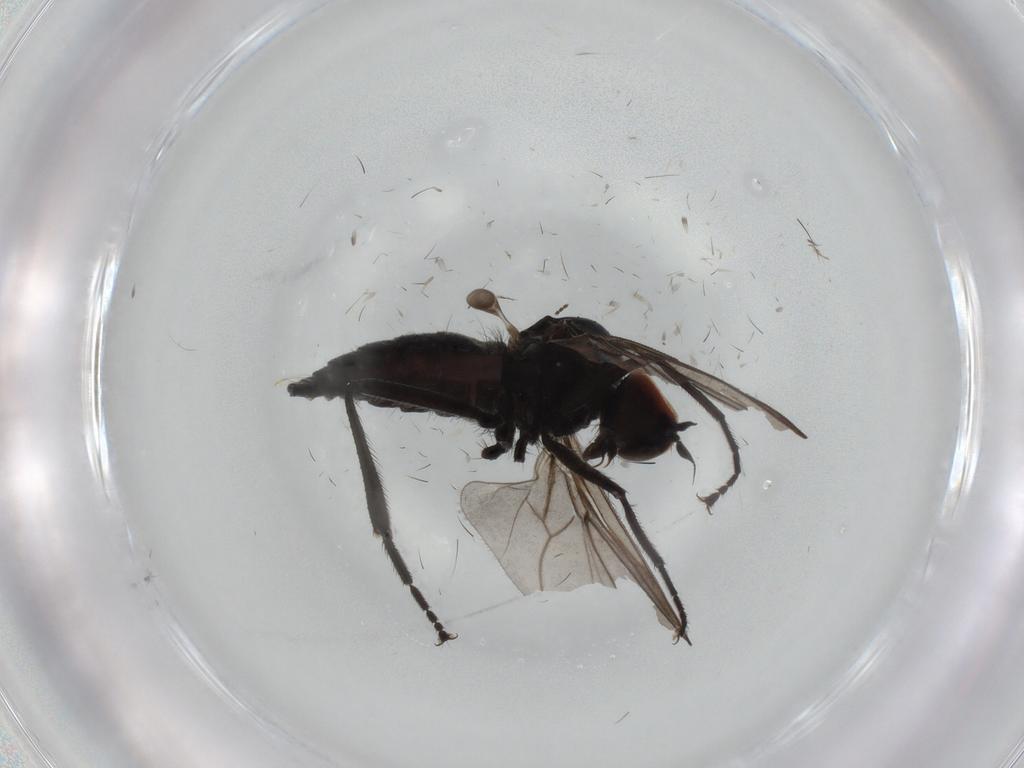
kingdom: Animalia
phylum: Arthropoda
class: Insecta
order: Diptera
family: Hybotidae
